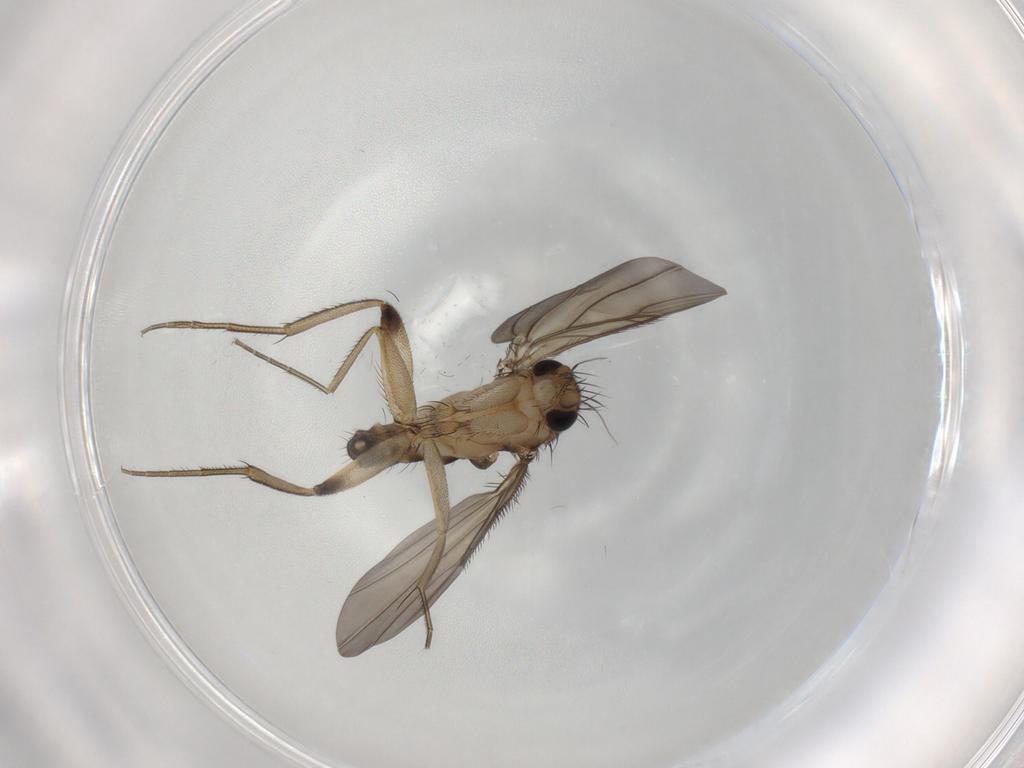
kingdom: Animalia
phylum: Arthropoda
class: Insecta
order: Diptera
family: Phoridae
